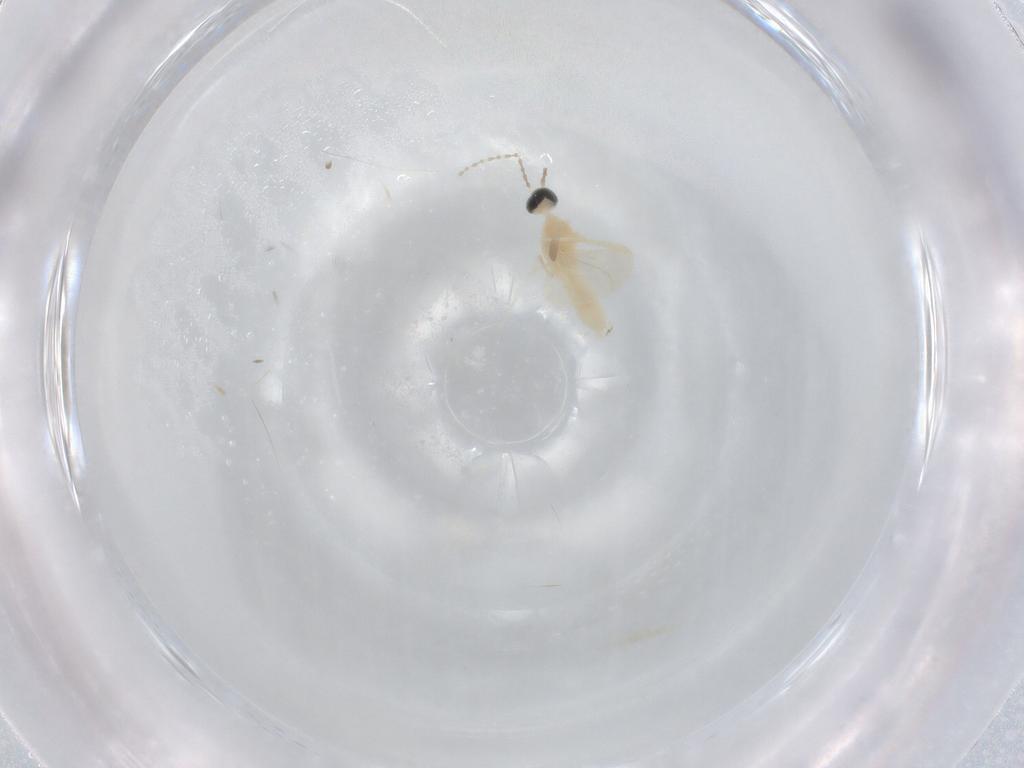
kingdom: Animalia
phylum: Arthropoda
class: Insecta
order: Diptera
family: Cecidomyiidae
